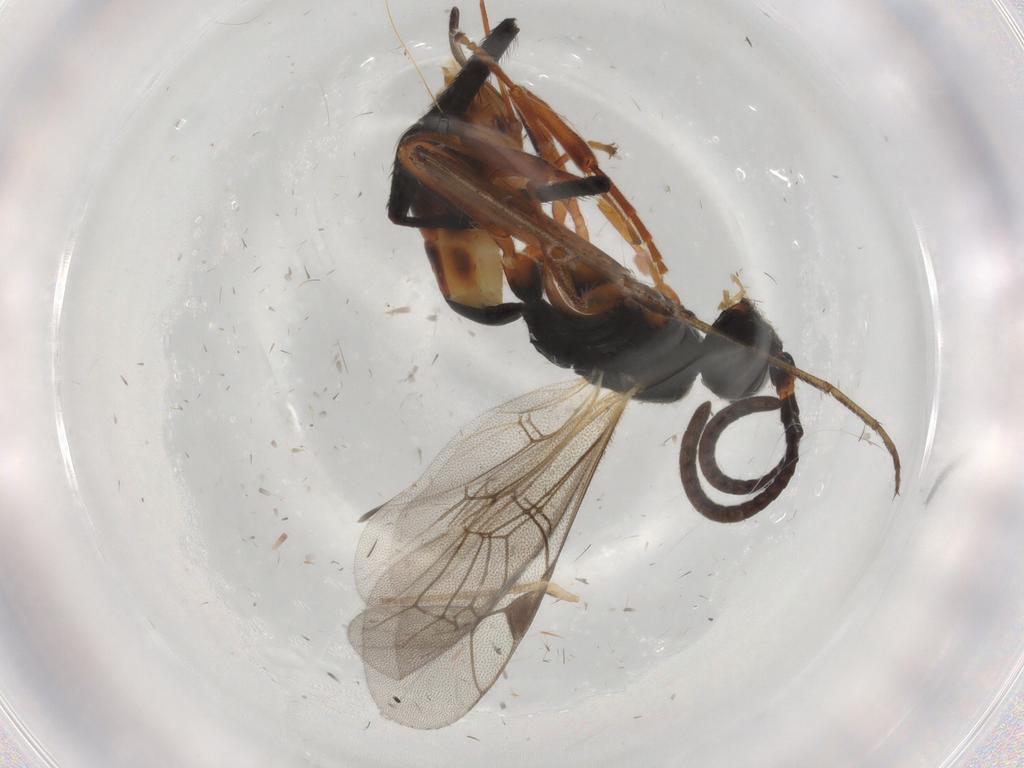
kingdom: Animalia
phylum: Arthropoda
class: Insecta
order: Hymenoptera
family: Ichneumonidae
